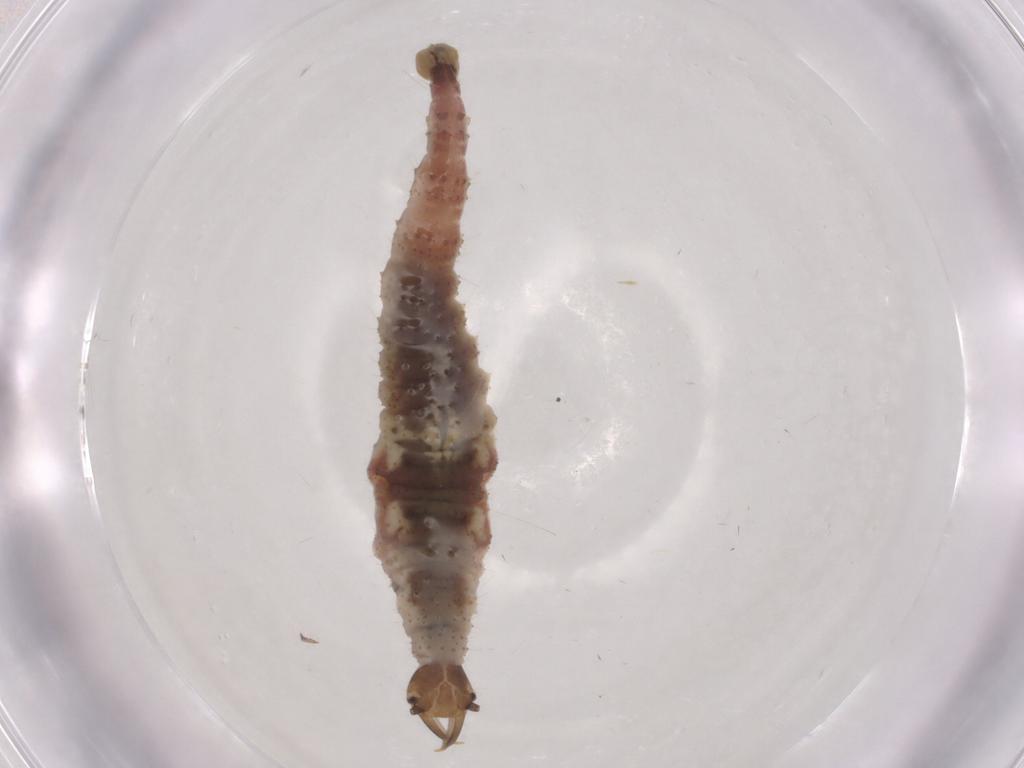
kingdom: Animalia
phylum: Arthropoda
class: Insecta
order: Neuroptera
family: Hemerobiidae
